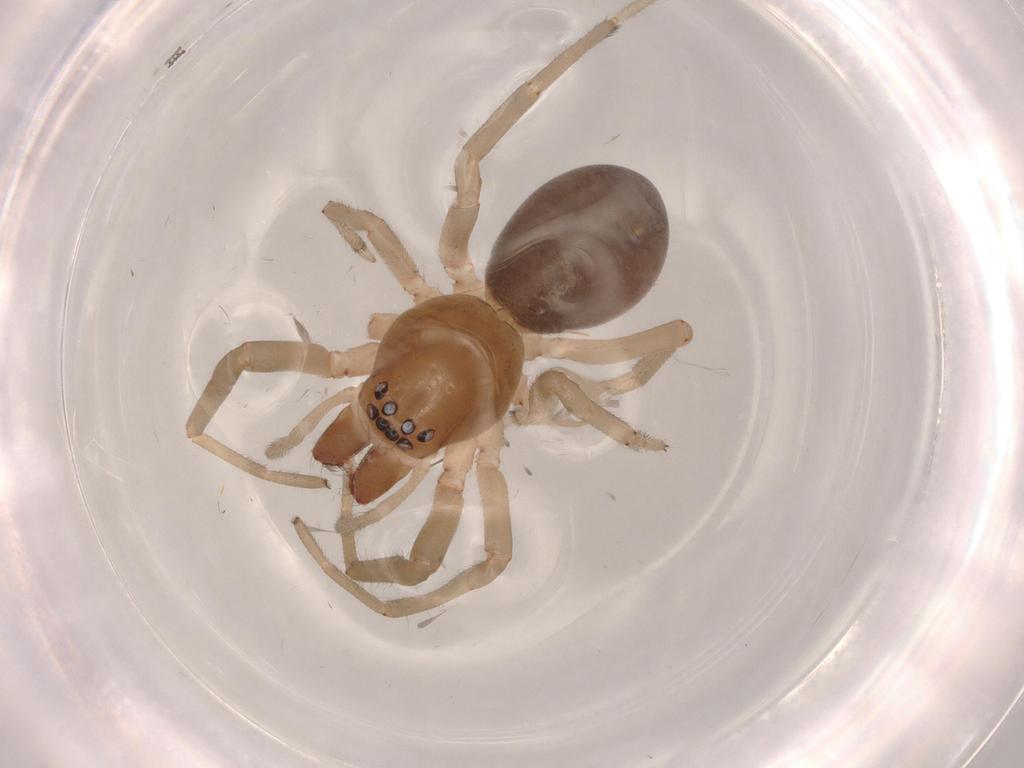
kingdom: Animalia
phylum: Arthropoda
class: Arachnida
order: Araneae
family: Trachelidae
